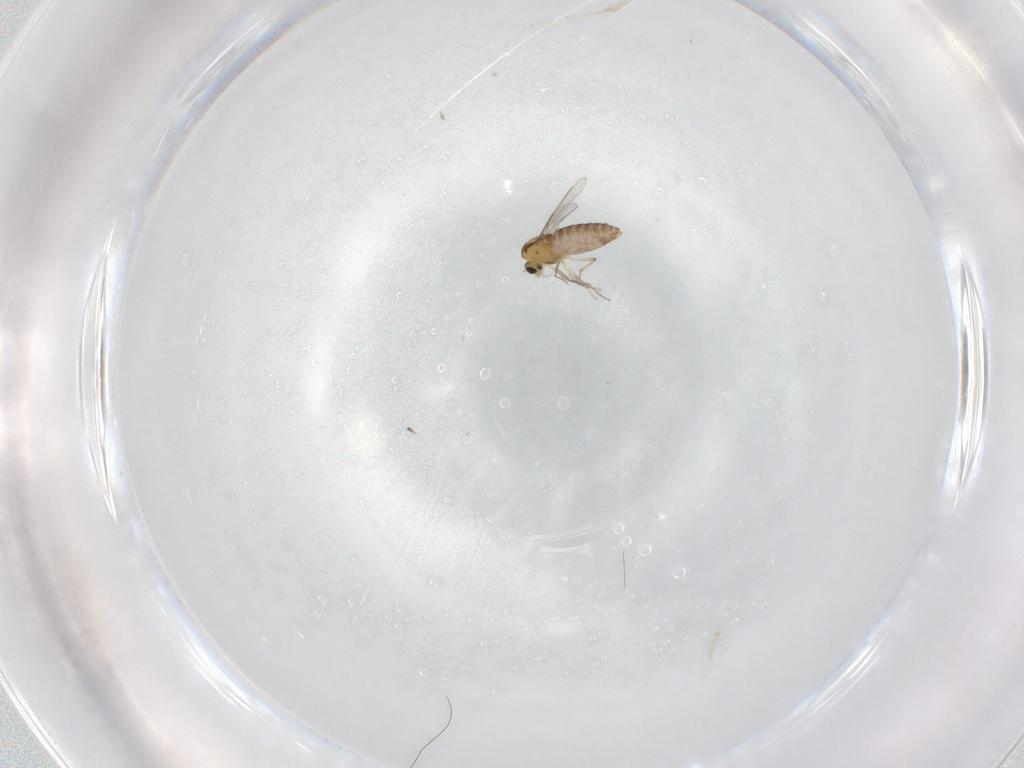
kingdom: Animalia
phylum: Arthropoda
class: Insecta
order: Diptera
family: Chironomidae
